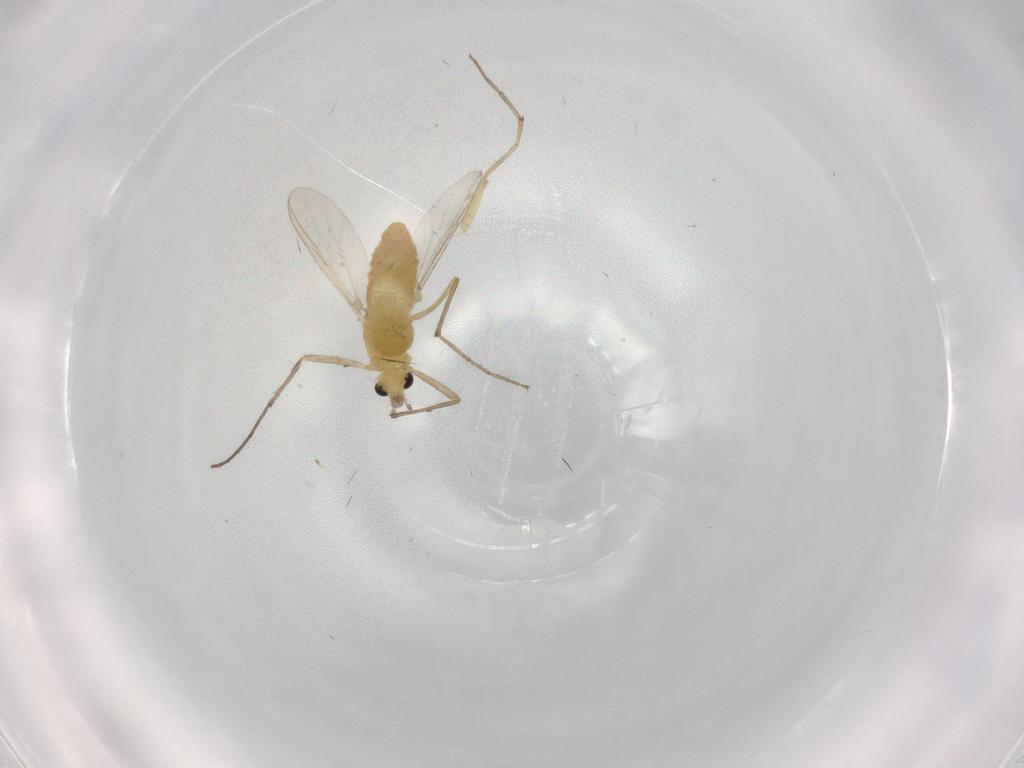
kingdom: Animalia
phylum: Arthropoda
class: Insecta
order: Diptera
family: Chironomidae
